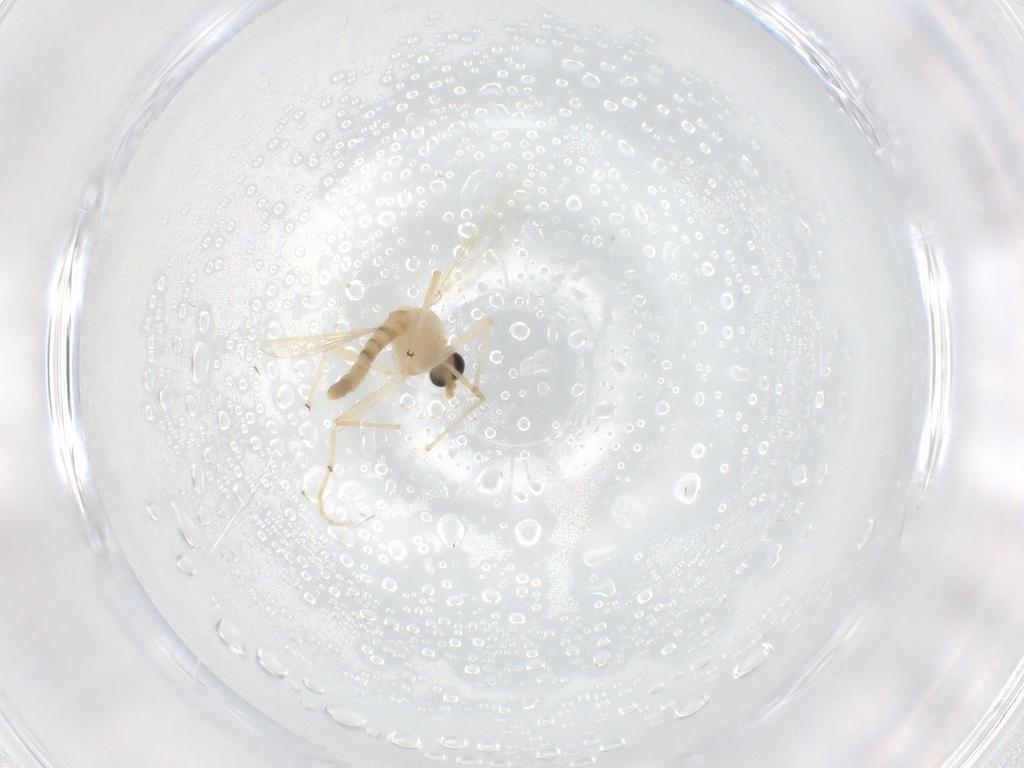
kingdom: Animalia
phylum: Arthropoda
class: Insecta
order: Diptera
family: Chironomidae
